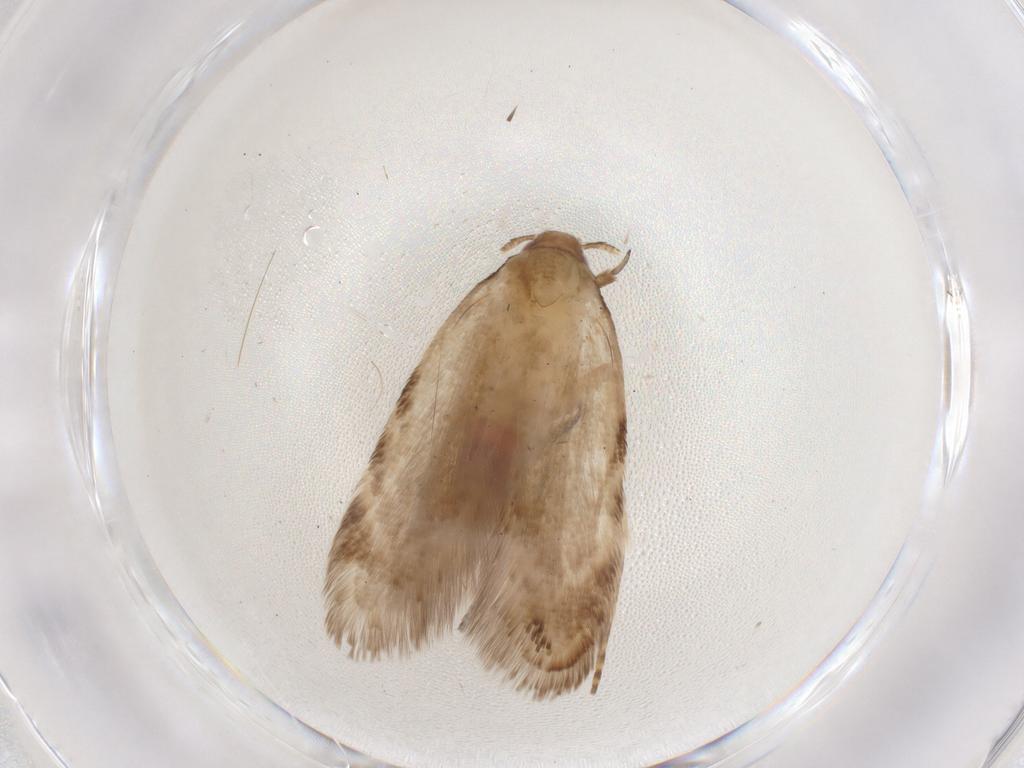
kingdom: Animalia
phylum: Arthropoda
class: Insecta
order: Lepidoptera
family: Gelechiidae
